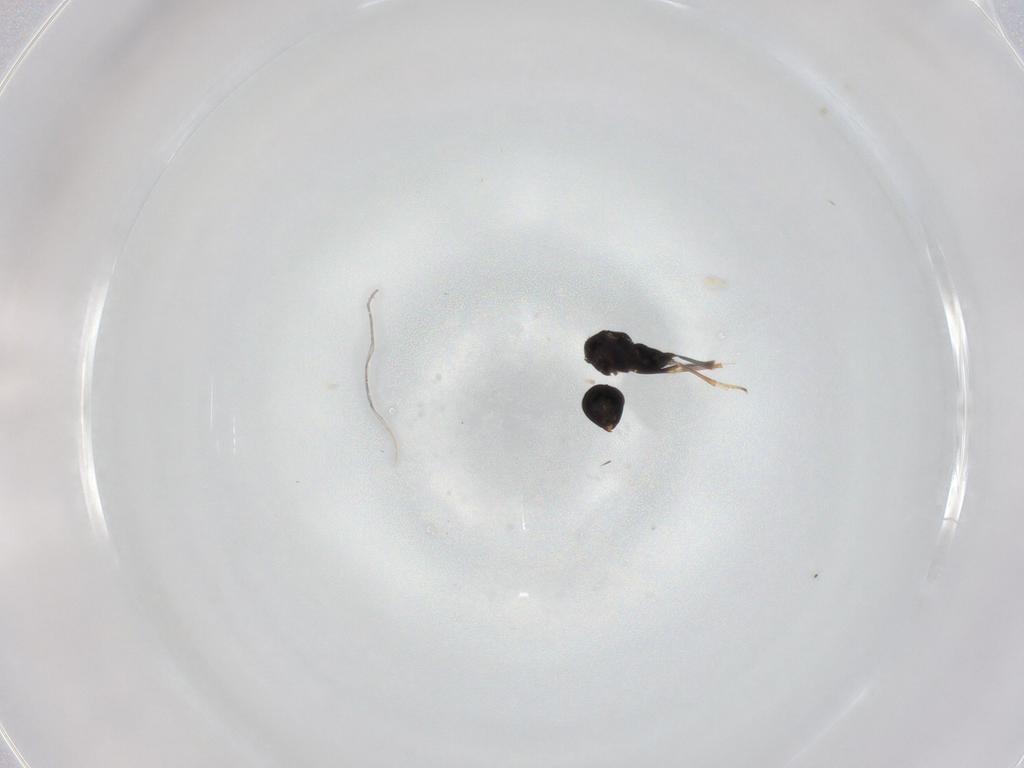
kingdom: Animalia
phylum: Arthropoda
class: Insecta
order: Hymenoptera
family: Encyrtidae
